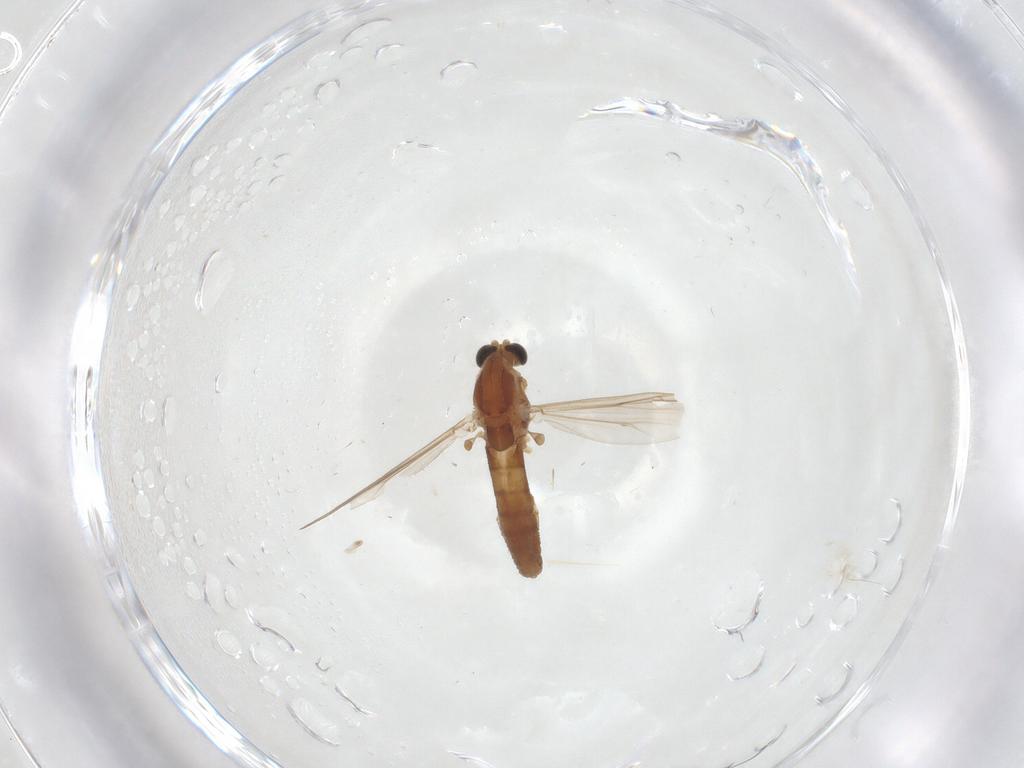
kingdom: Animalia
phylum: Arthropoda
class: Insecta
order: Diptera
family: Chironomidae
